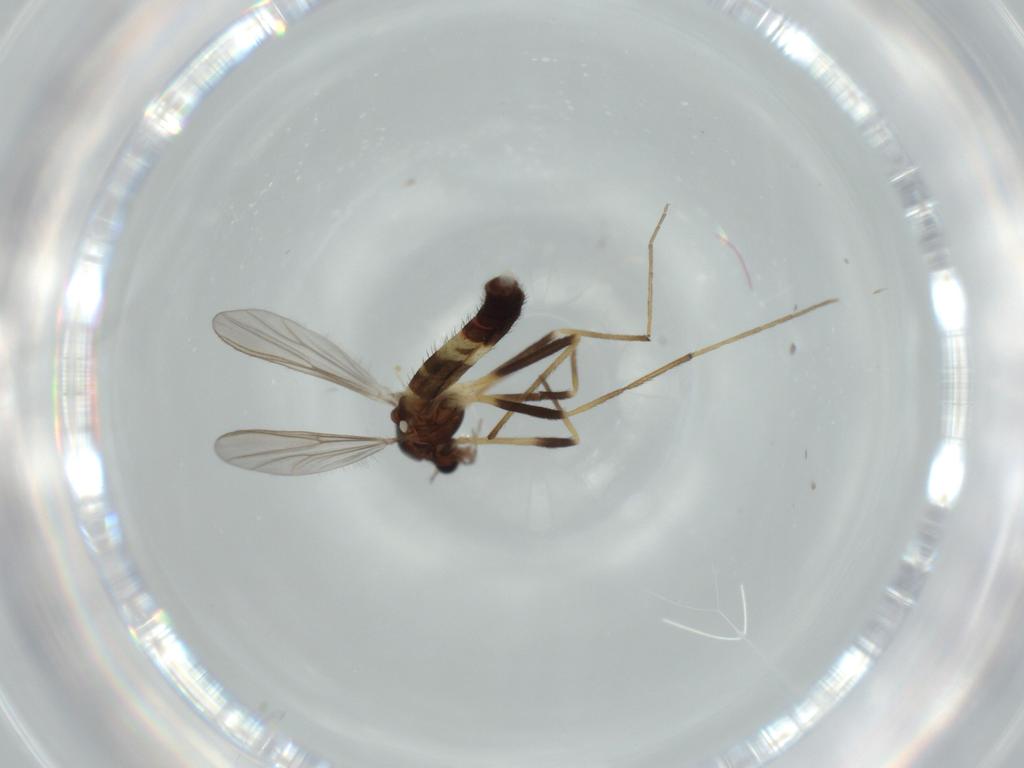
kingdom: Animalia
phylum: Arthropoda
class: Insecta
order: Diptera
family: Chironomidae
